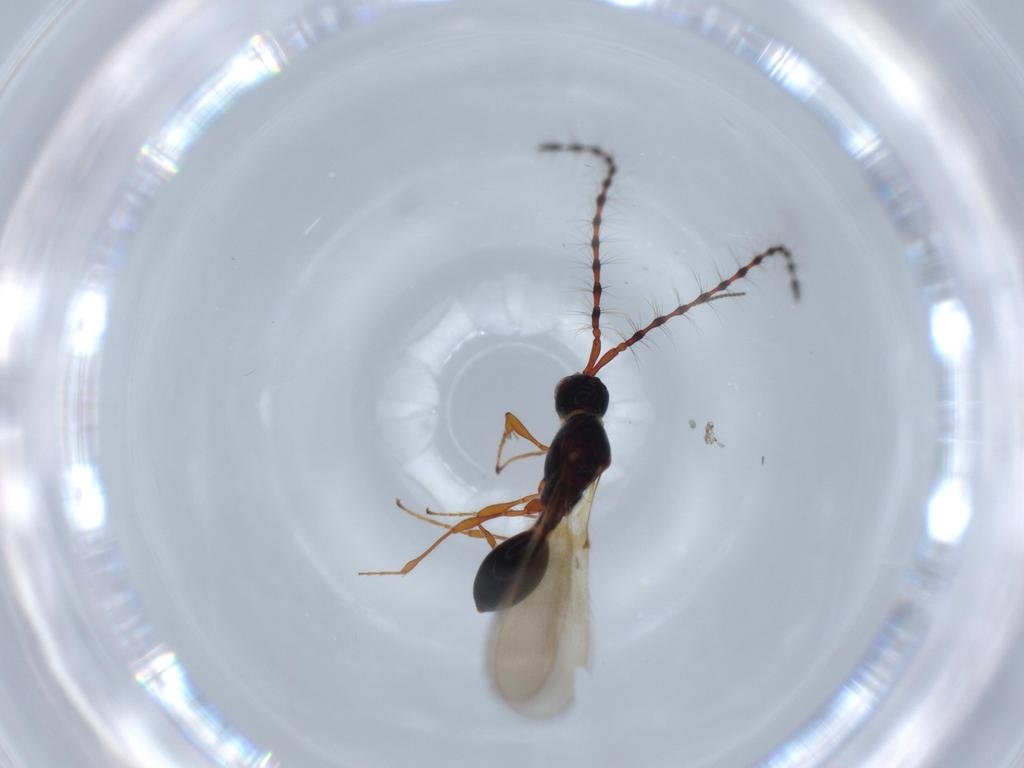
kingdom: Animalia
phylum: Arthropoda
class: Insecta
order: Hymenoptera
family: Diapriidae
